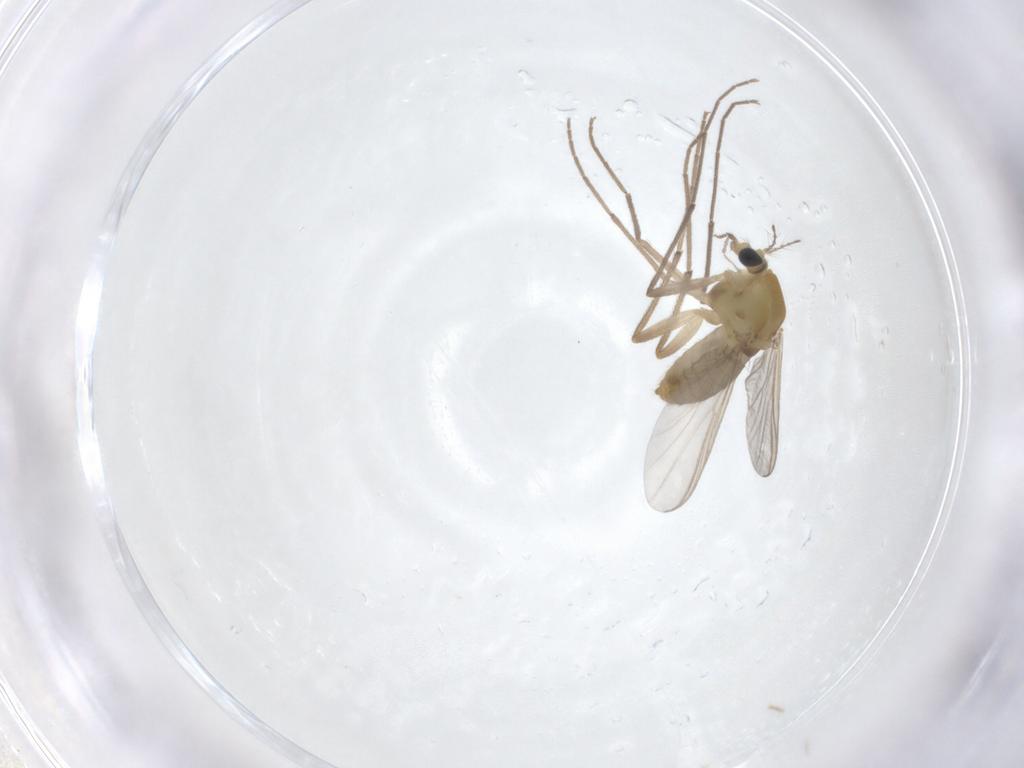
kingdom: Animalia
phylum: Arthropoda
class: Insecta
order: Diptera
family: Chironomidae
